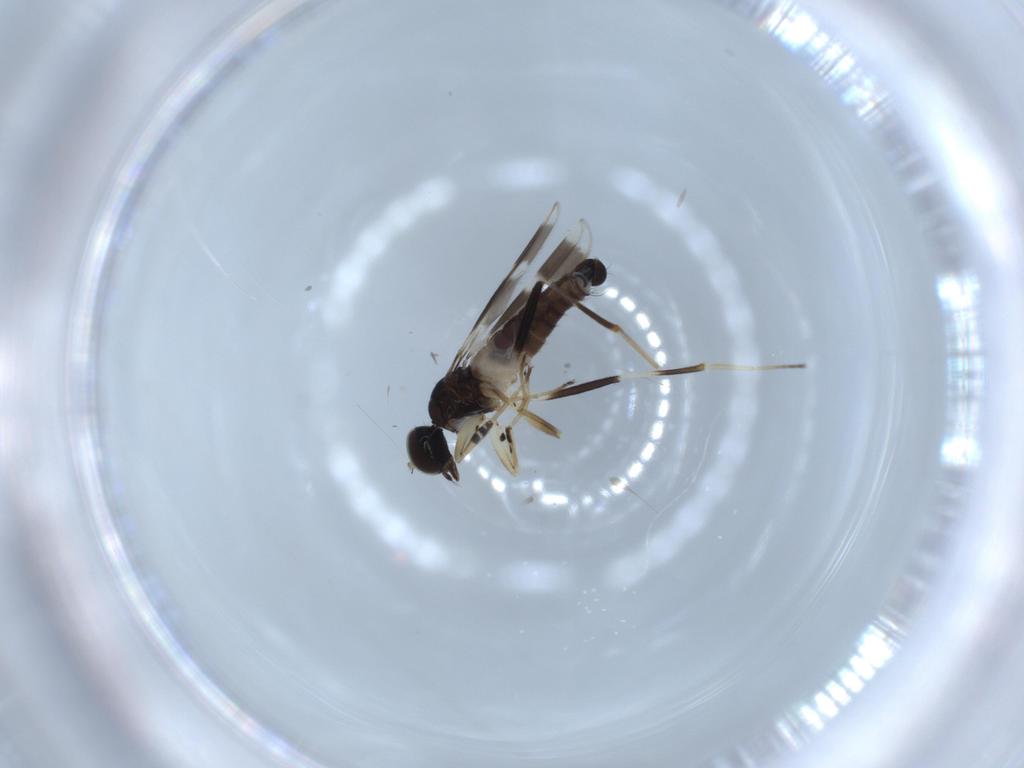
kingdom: Animalia
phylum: Arthropoda
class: Insecta
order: Diptera
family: Hybotidae
